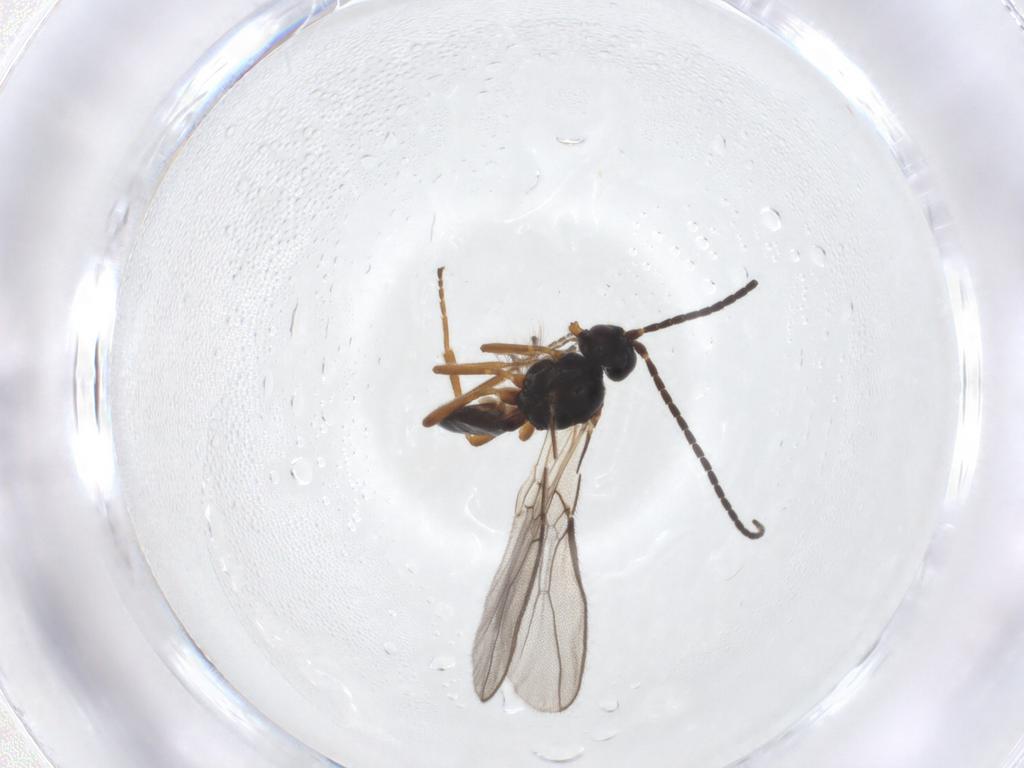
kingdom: Animalia
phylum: Arthropoda
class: Insecta
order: Hymenoptera
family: Braconidae
